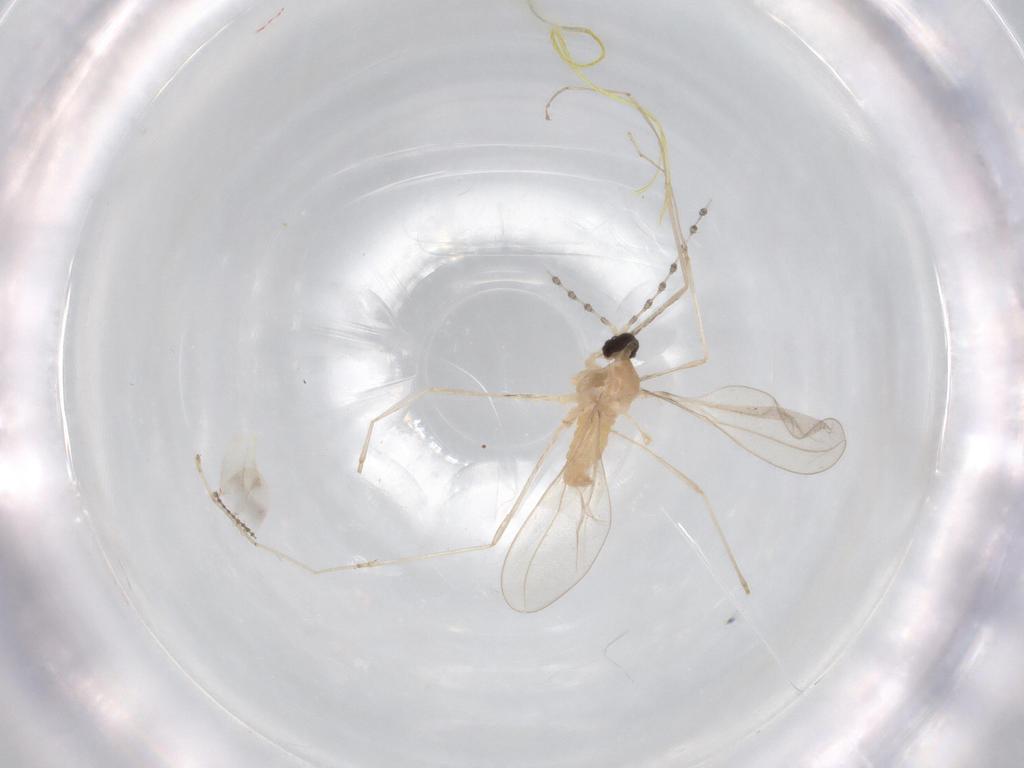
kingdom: Animalia
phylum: Arthropoda
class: Insecta
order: Diptera
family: Cecidomyiidae
